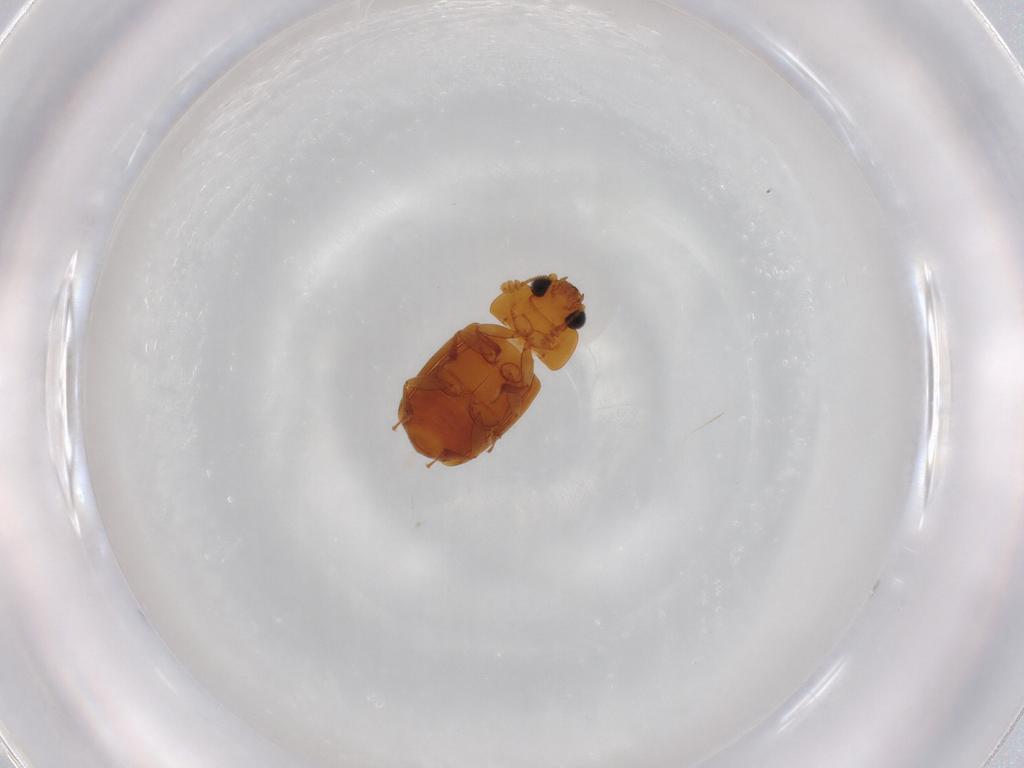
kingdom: Animalia
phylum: Arthropoda
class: Insecta
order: Coleoptera
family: Nitidulidae
